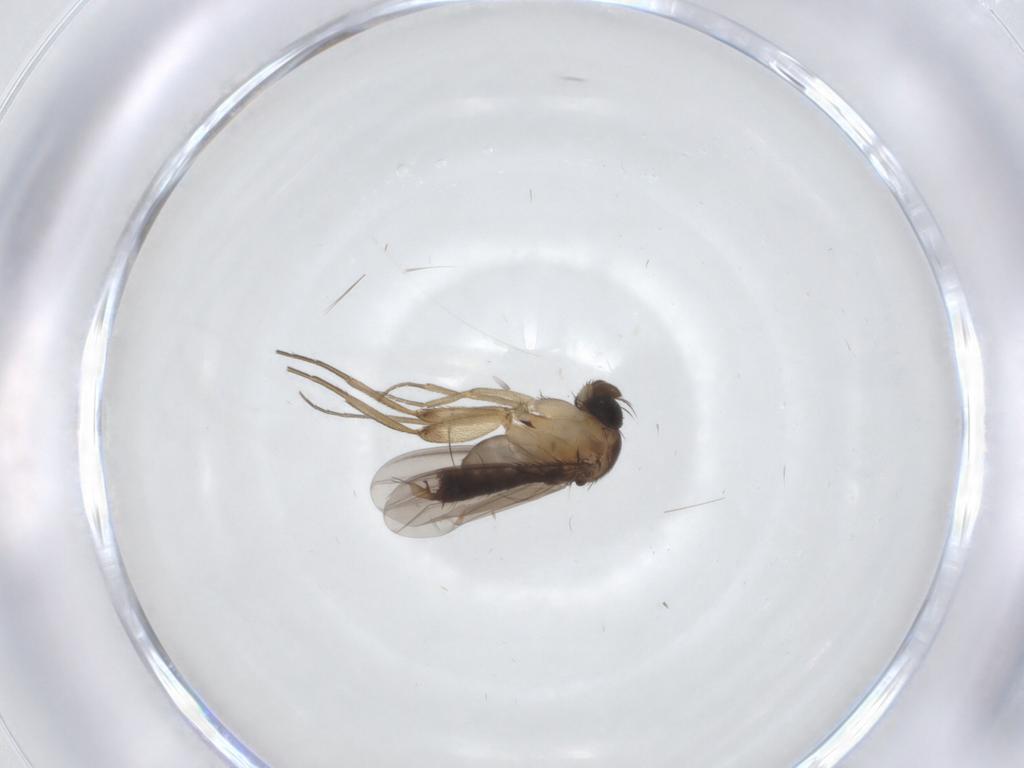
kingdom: Animalia
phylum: Arthropoda
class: Insecta
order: Diptera
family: Phoridae
